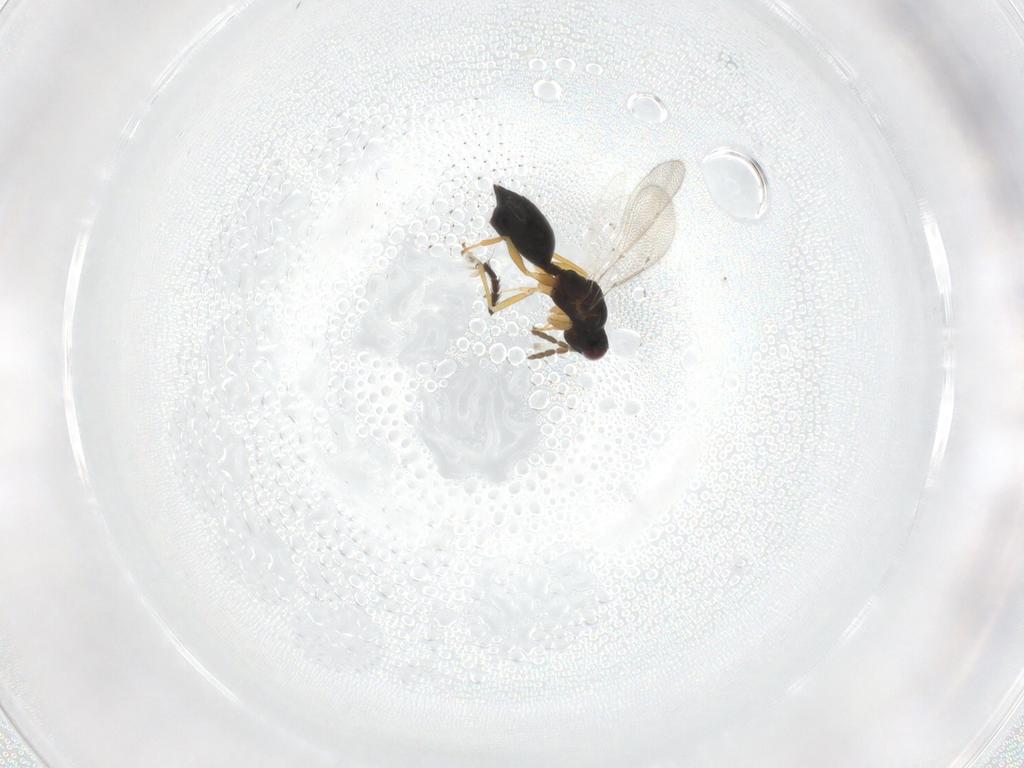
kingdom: Animalia
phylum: Arthropoda
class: Insecta
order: Hymenoptera
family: Eulophidae
